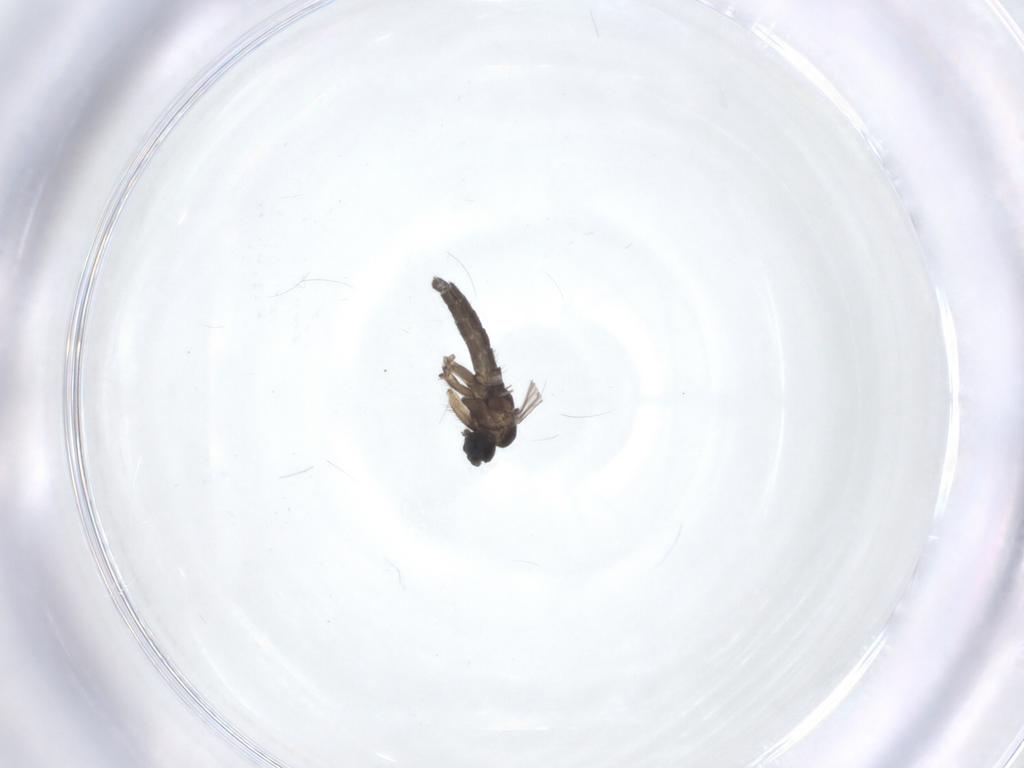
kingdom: Animalia
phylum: Arthropoda
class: Insecta
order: Diptera
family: Sciaridae
